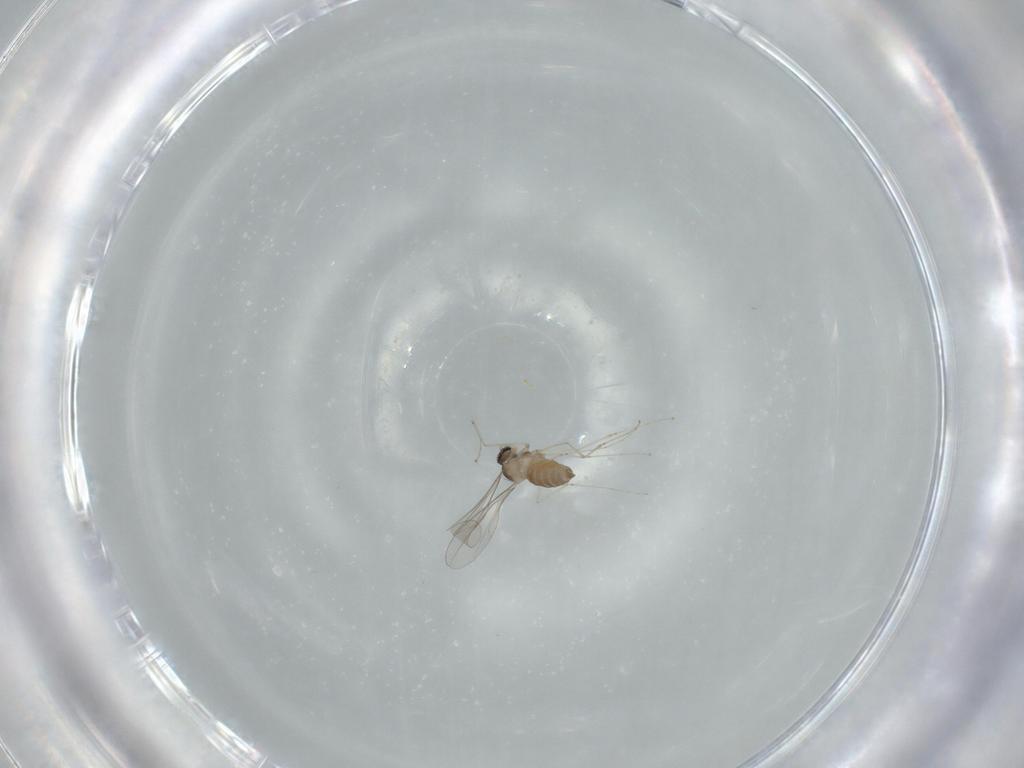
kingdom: Animalia
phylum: Arthropoda
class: Insecta
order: Diptera
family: Cecidomyiidae
